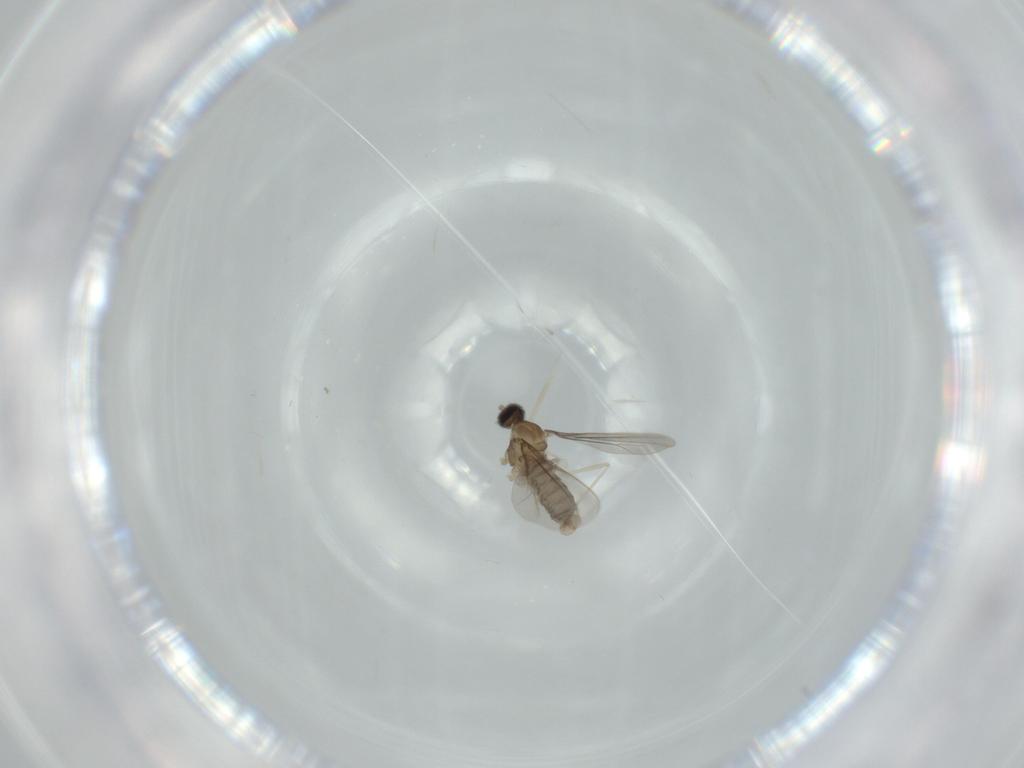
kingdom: Animalia
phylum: Arthropoda
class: Insecta
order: Diptera
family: Cecidomyiidae
